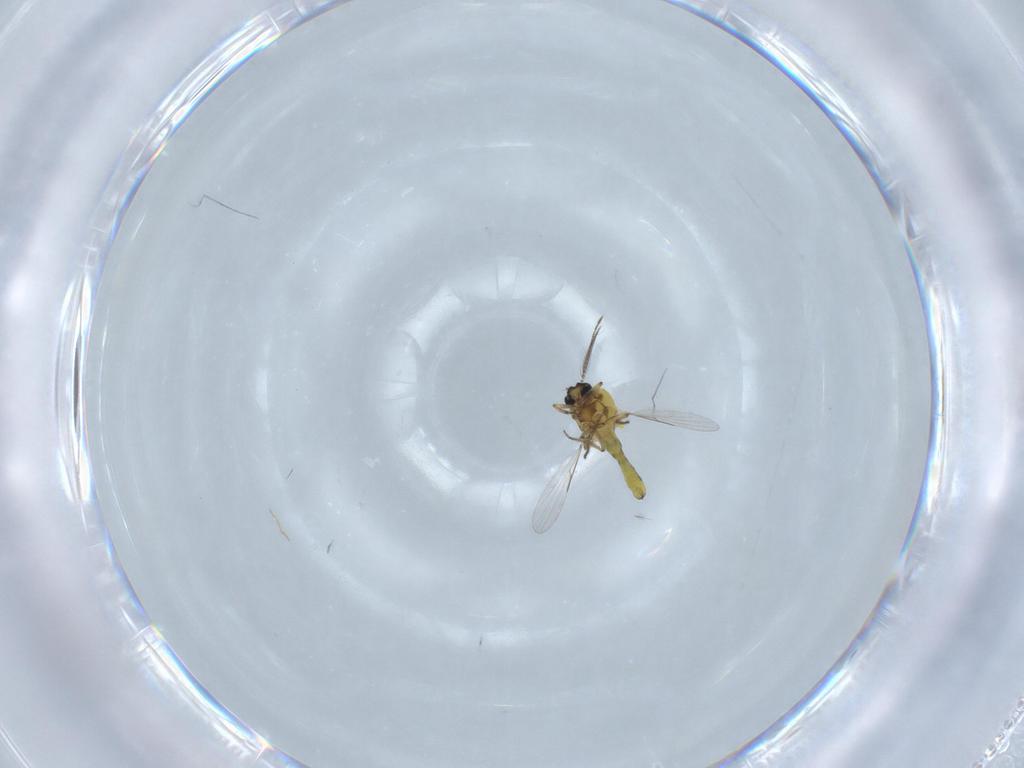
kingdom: Animalia
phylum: Arthropoda
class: Insecta
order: Diptera
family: Ceratopogonidae
